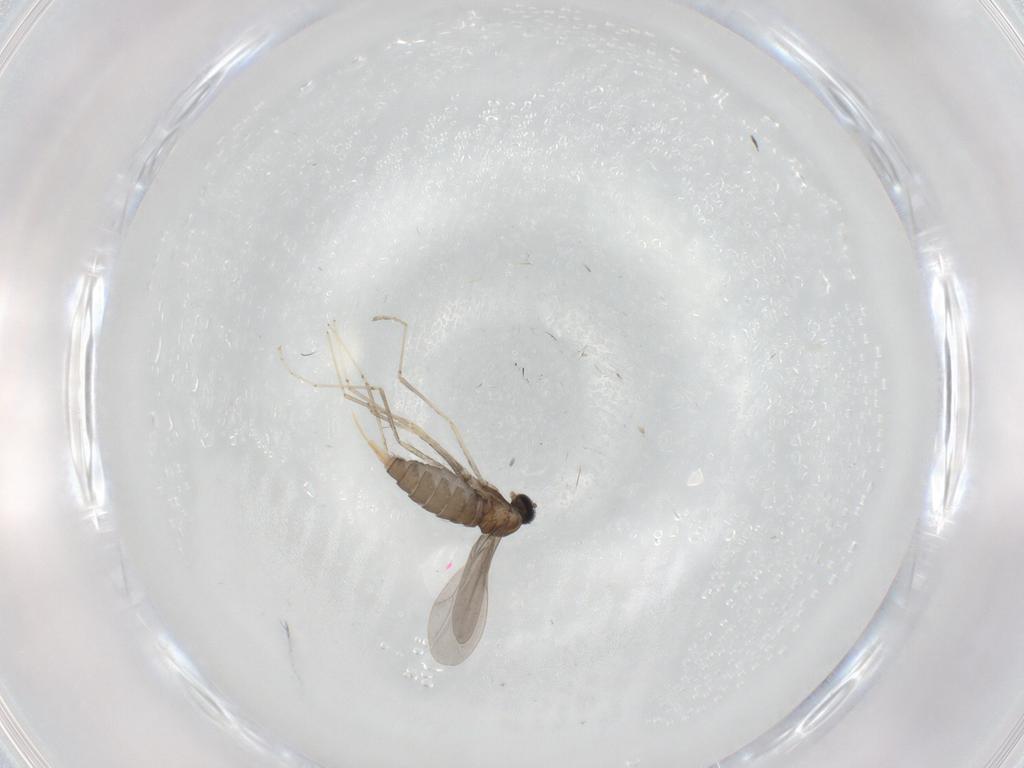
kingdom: Animalia
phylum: Arthropoda
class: Insecta
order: Diptera
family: Cecidomyiidae
